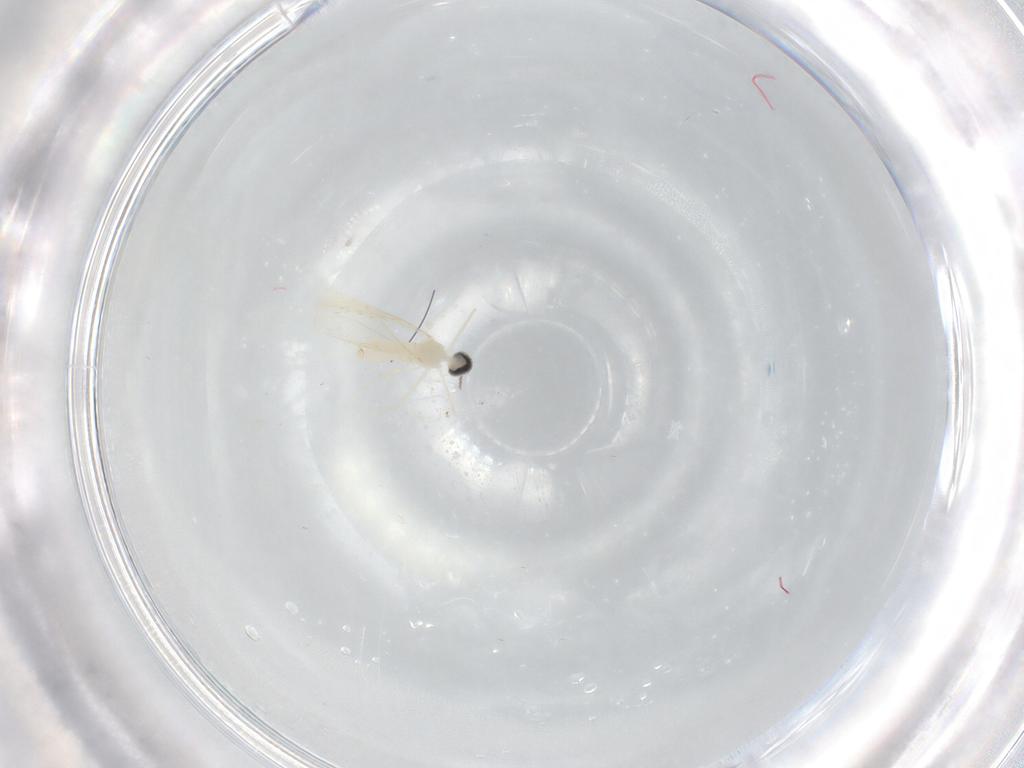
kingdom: Animalia
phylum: Arthropoda
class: Insecta
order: Diptera
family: Cecidomyiidae
